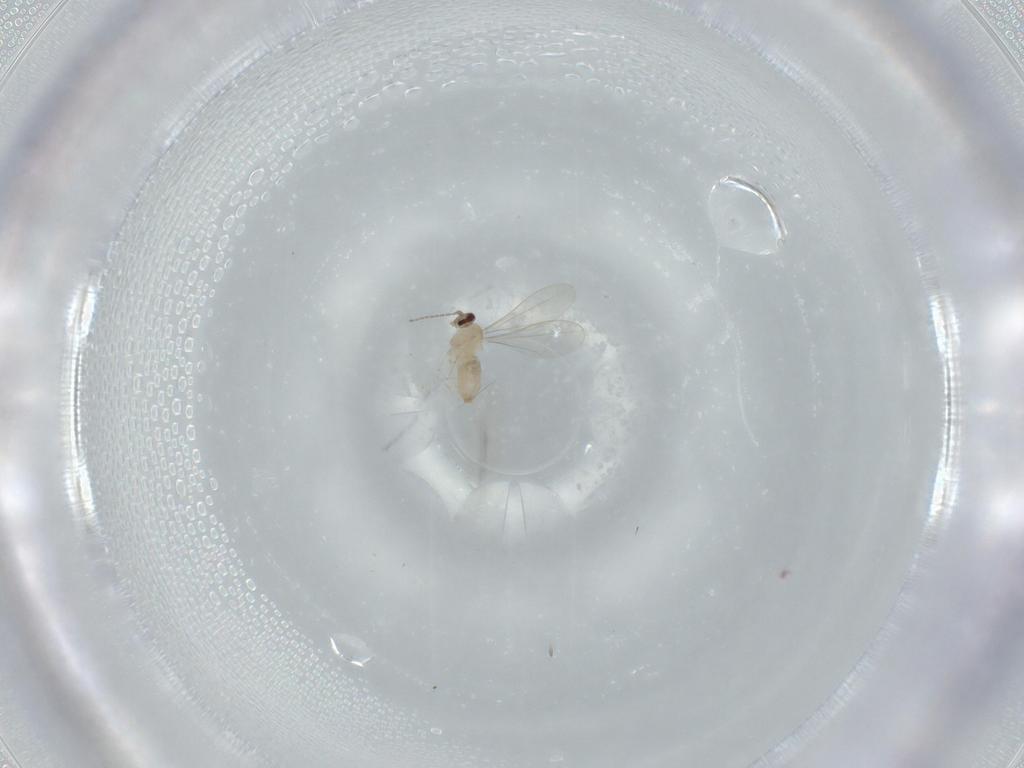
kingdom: Animalia
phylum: Arthropoda
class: Insecta
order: Diptera
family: Cecidomyiidae
